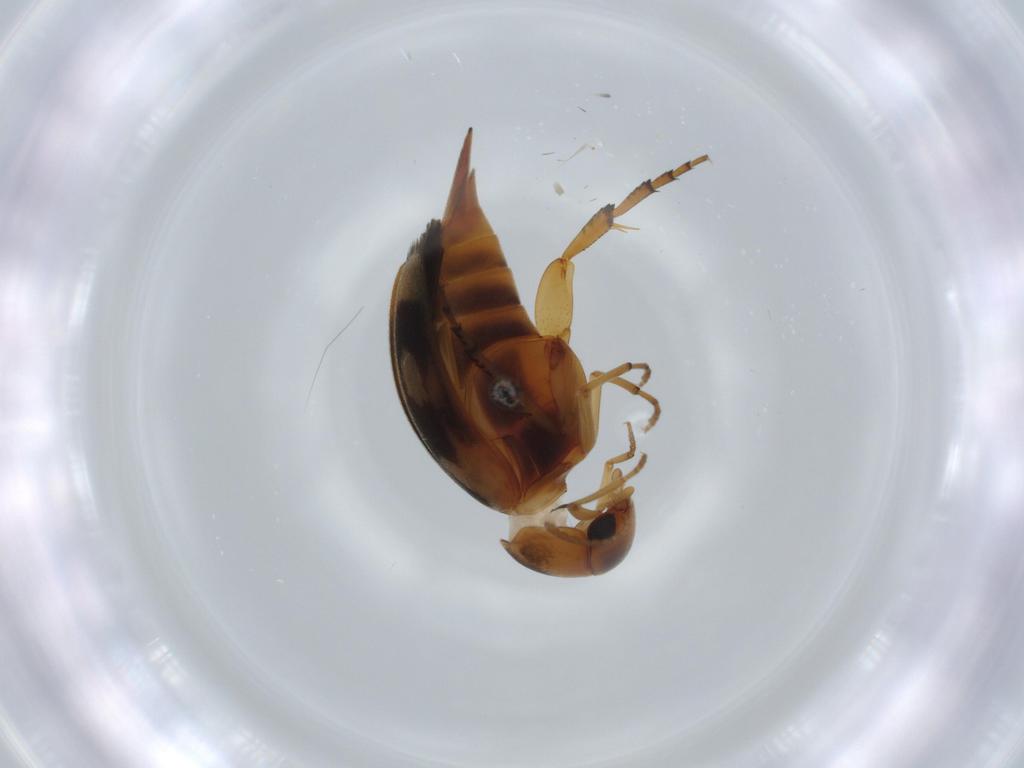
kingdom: Animalia
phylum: Arthropoda
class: Insecta
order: Coleoptera
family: Mordellidae
